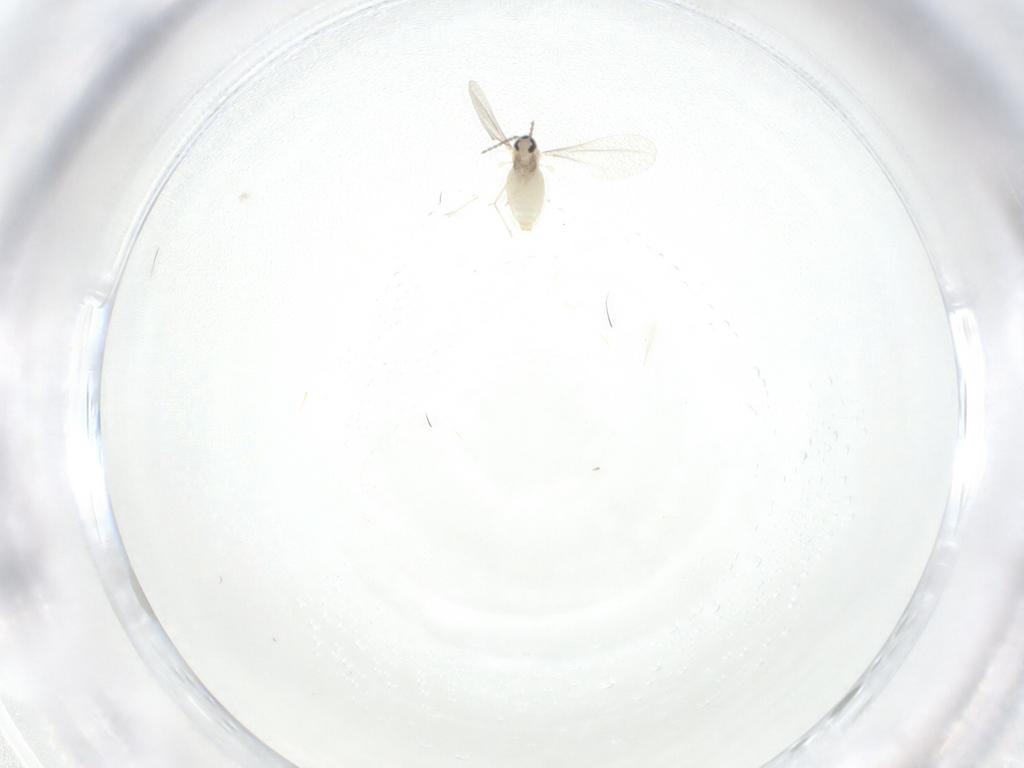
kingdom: Animalia
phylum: Arthropoda
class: Insecta
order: Diptera
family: Cecidomyiidae
